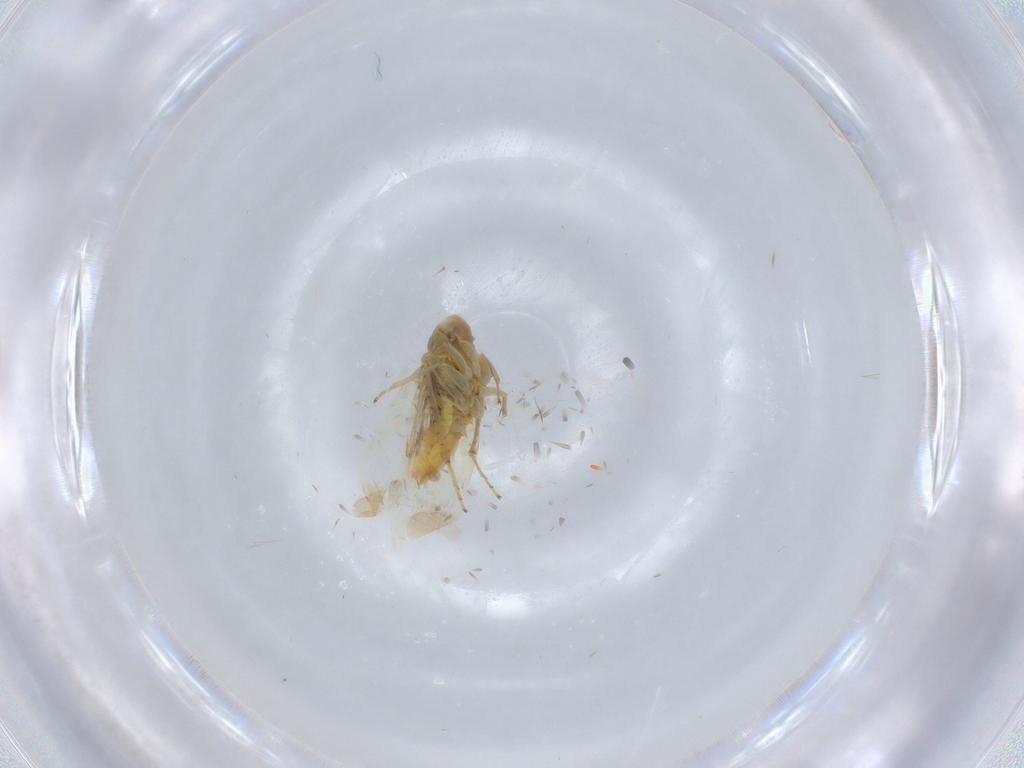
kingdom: Animalia
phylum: Arthropoda
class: Insecta
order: Hemiptera
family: Cicadellidae
